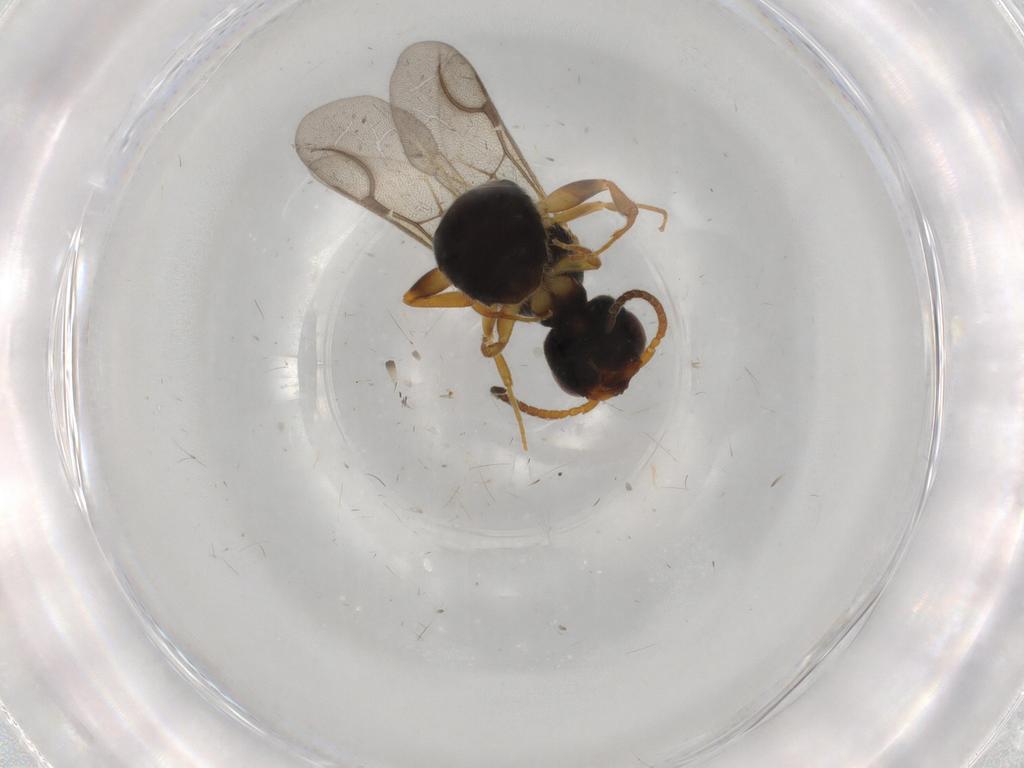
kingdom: Animalia
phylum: Arthropoda
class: Insecta
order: Hymenoptera
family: Bethylidae
